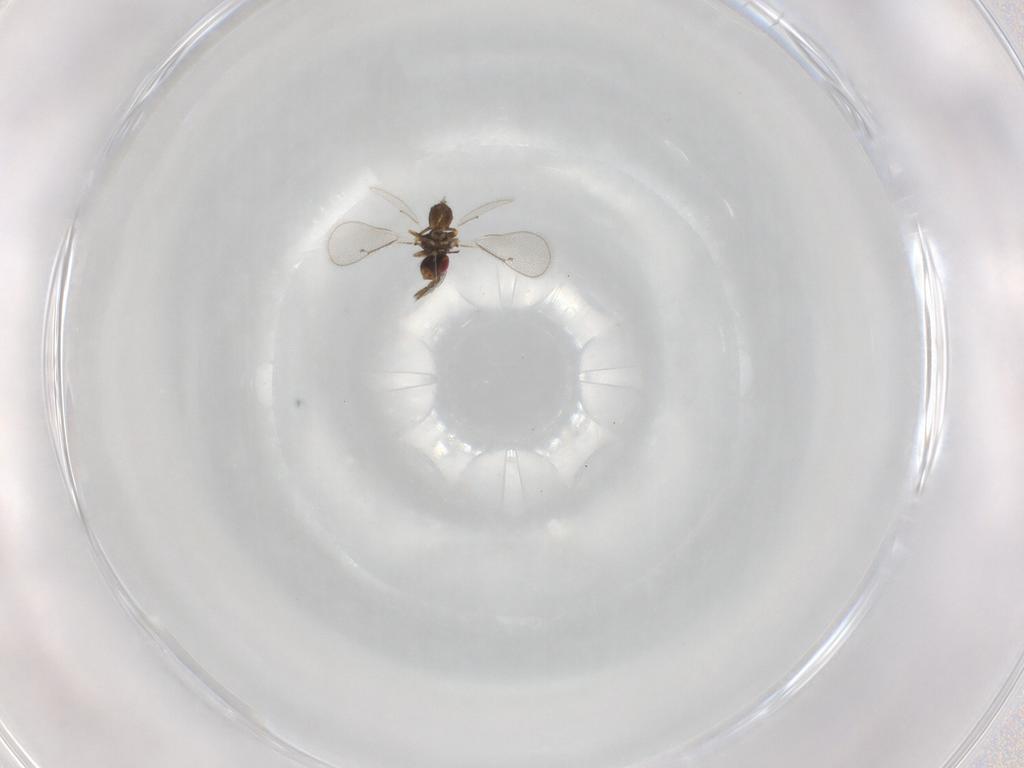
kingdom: Animalia
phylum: Arthropoda
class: Insecta
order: Hymenoptera
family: Eulophidae
